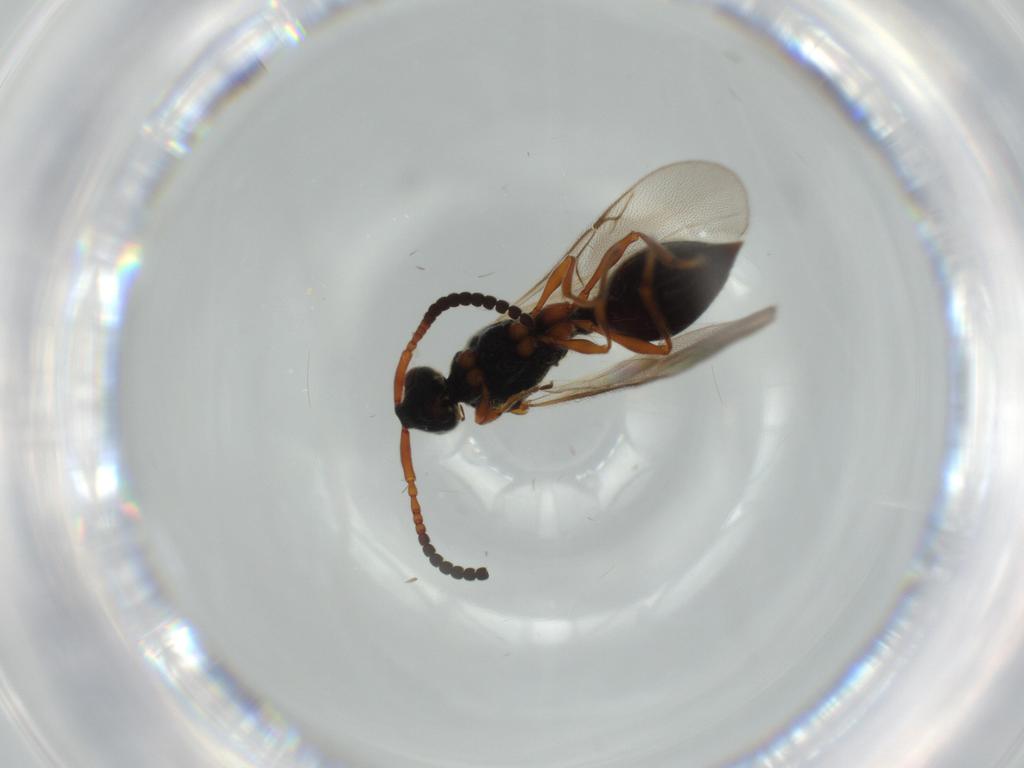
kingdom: Animalia
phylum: Arthropoda
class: Insecta
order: Hymenoptera
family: Ichneumonidae
